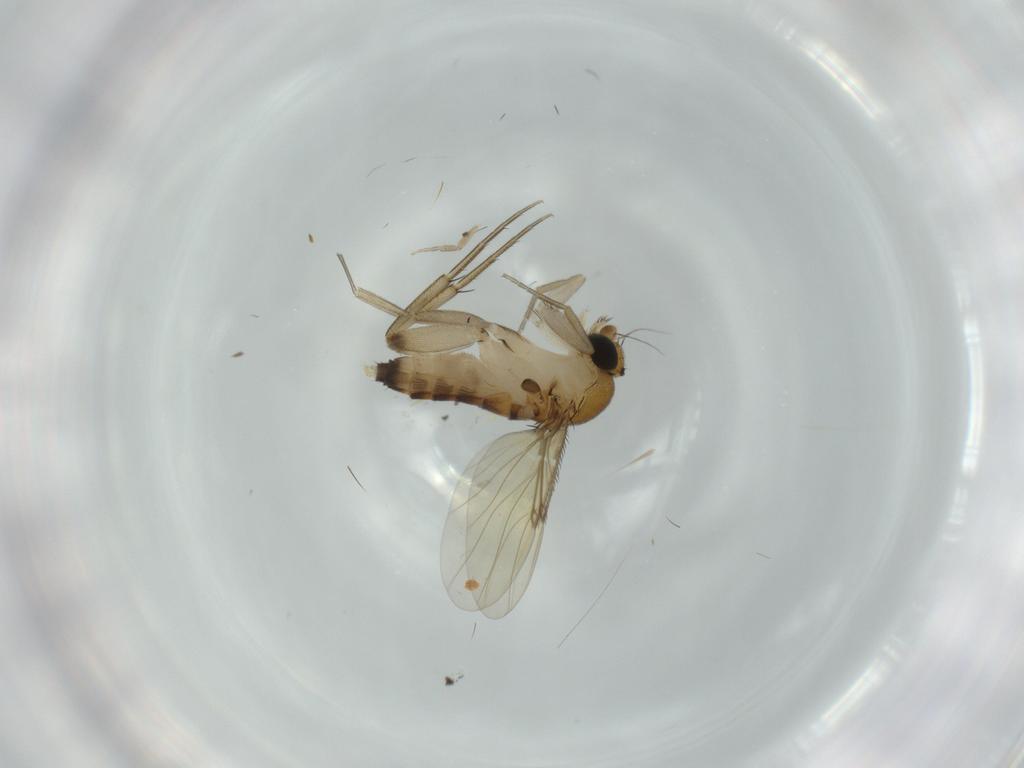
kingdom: Animalia
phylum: Arthropoda
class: Insecta
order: Diptera
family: Phoridae
